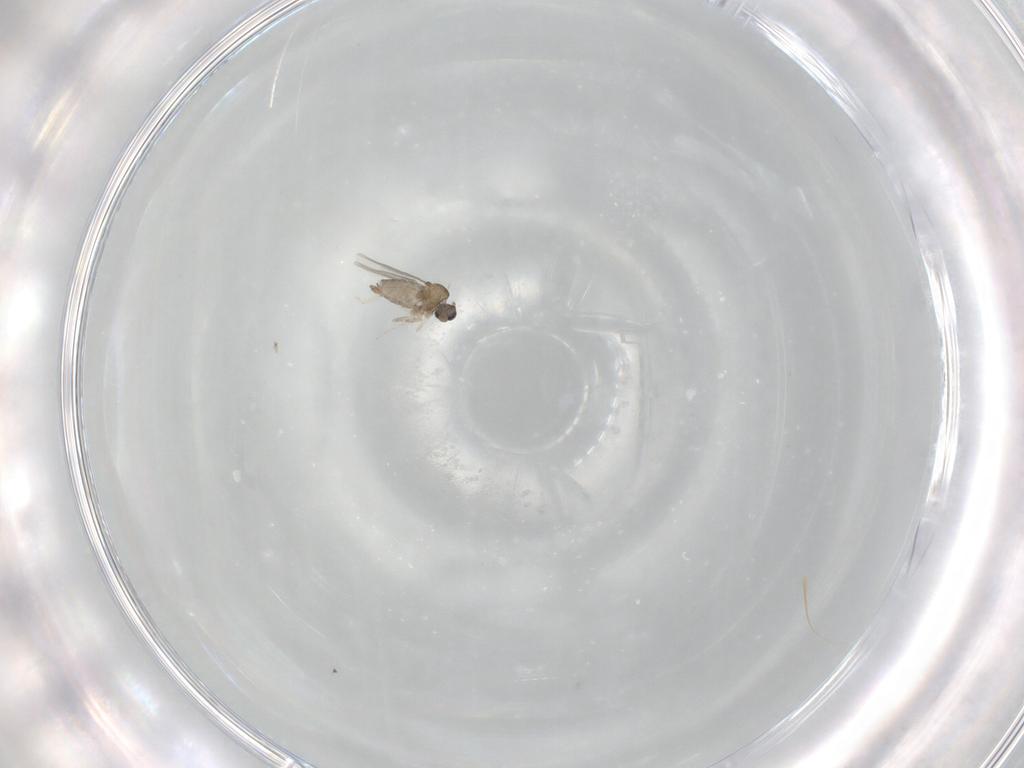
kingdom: Animalia
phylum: Arthropoda
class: Insecta
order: Diptera
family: Cecidomyiidae
